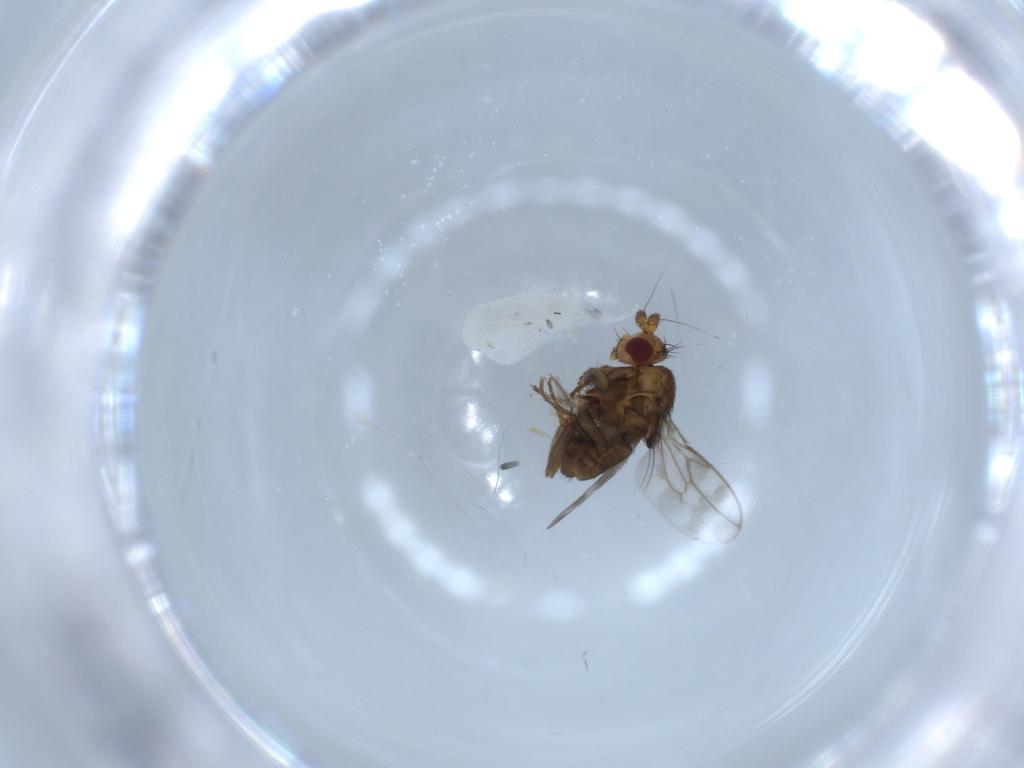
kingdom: Animalia
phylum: Arthropoda
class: Insecta
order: Diptera
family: Sphaeroceridae
